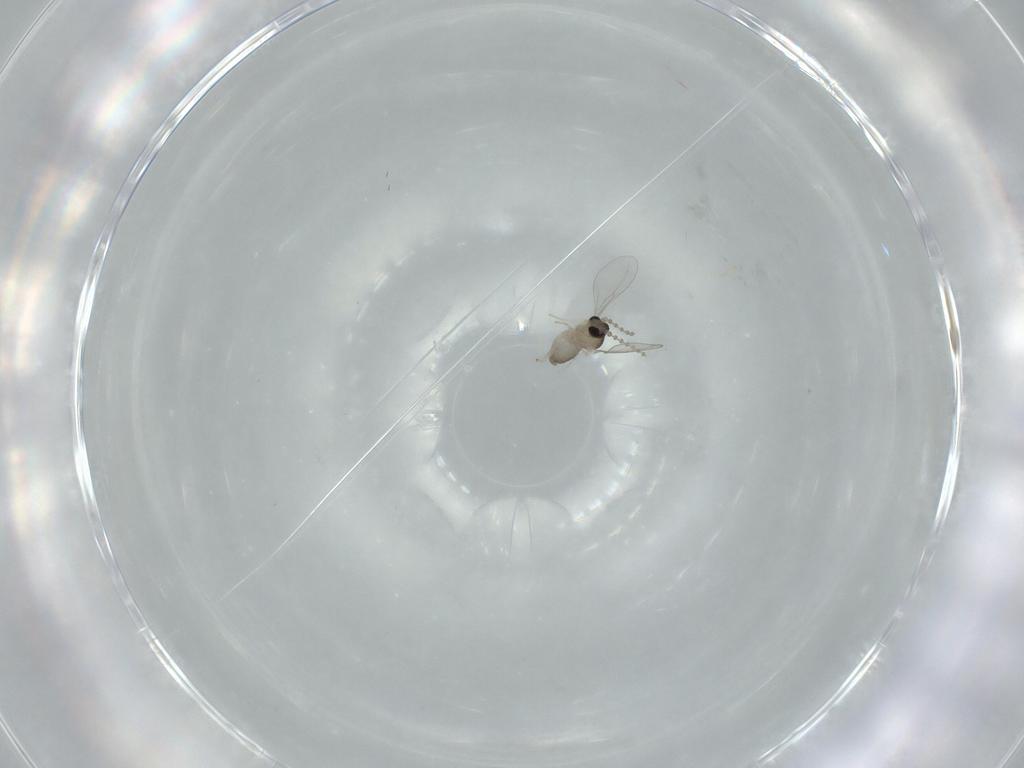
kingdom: Animalia
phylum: Arthropoda
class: Insecta
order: Diptera
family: Cecidomyiidae
